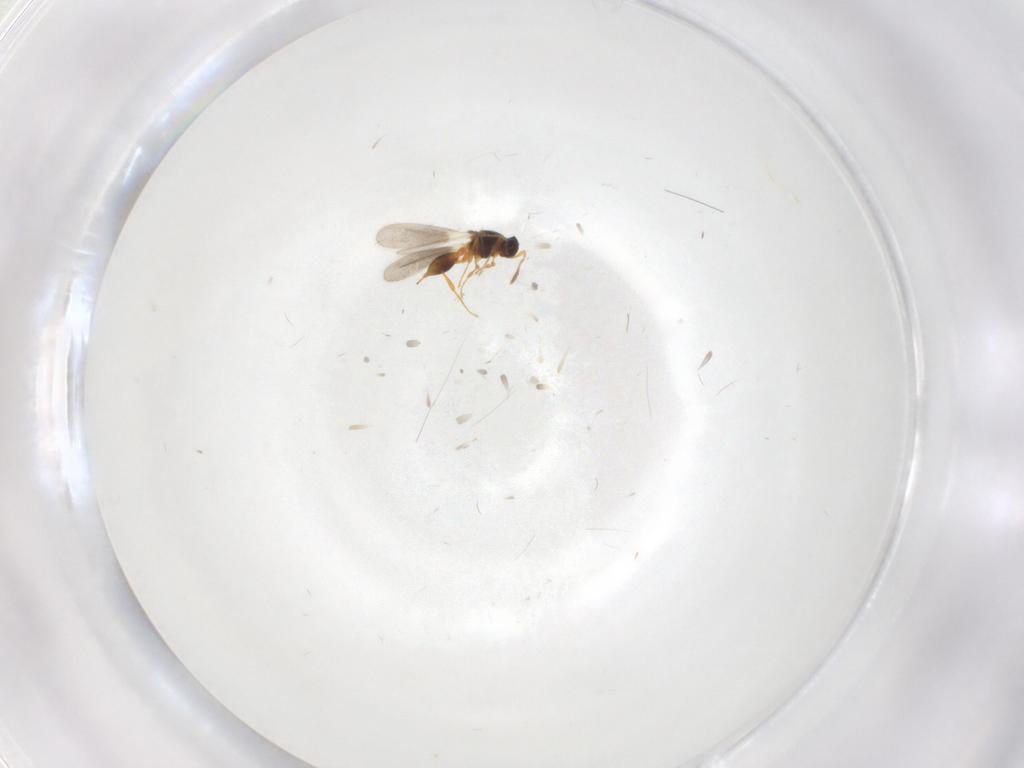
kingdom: Animalia
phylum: Arthropoda
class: Insecta
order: Hymenoptera
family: Platygastridae
